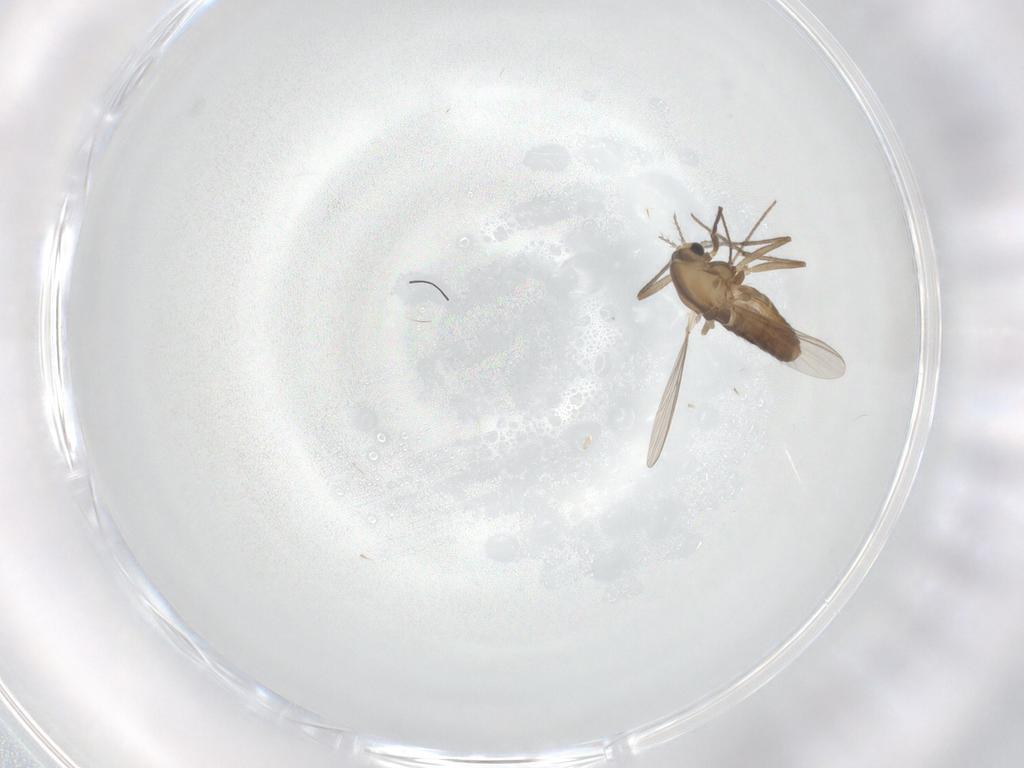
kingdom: Animalia
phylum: Arthropoda
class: Insecta
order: Diptera
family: Chironomidae
